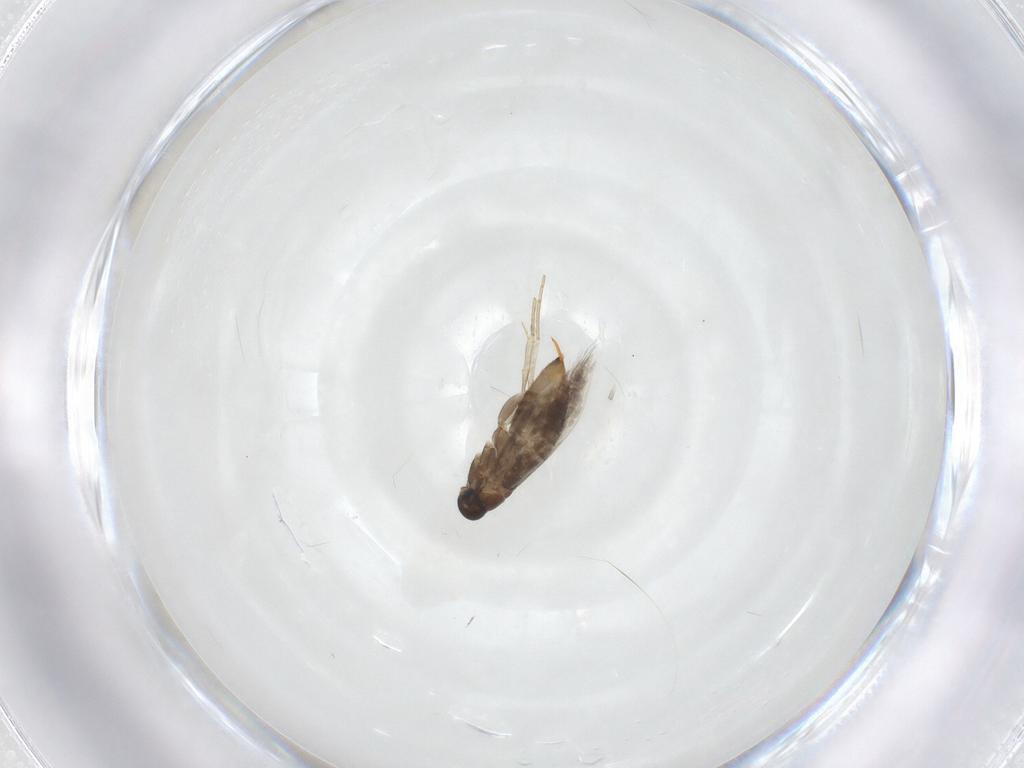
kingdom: Animalia
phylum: Arthropoda
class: Insecta
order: Lepidoptera
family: Heliozelidae
